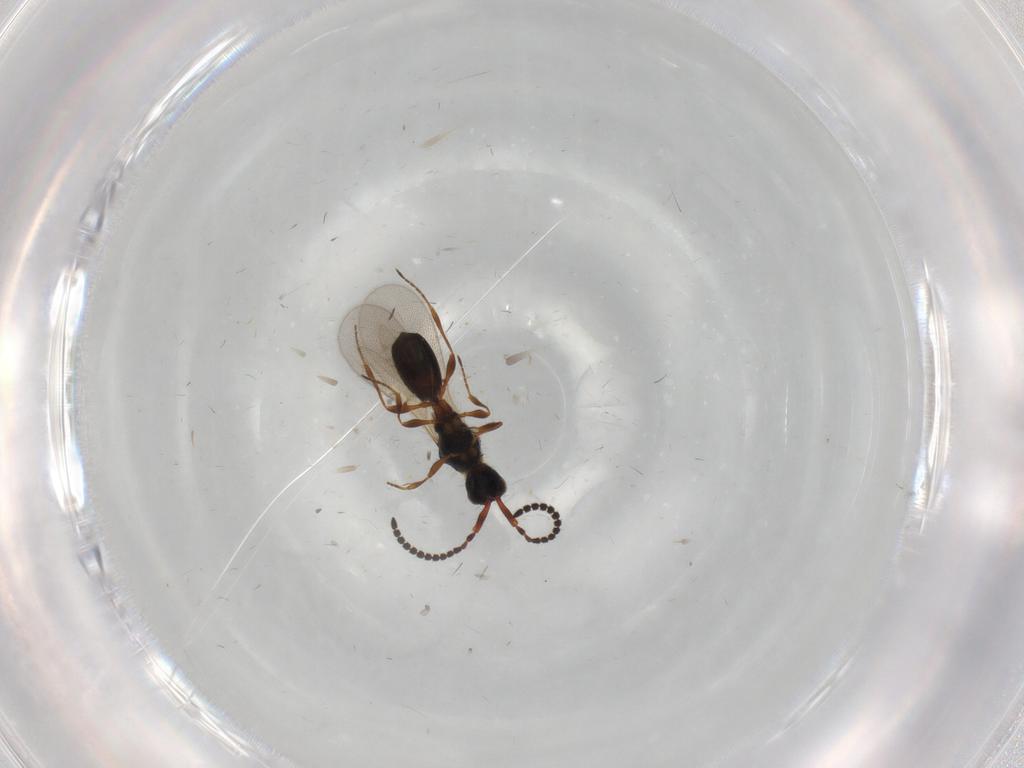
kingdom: Animalia
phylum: Arthropoda
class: Insecta
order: Hymenoptera
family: Diapriidae
